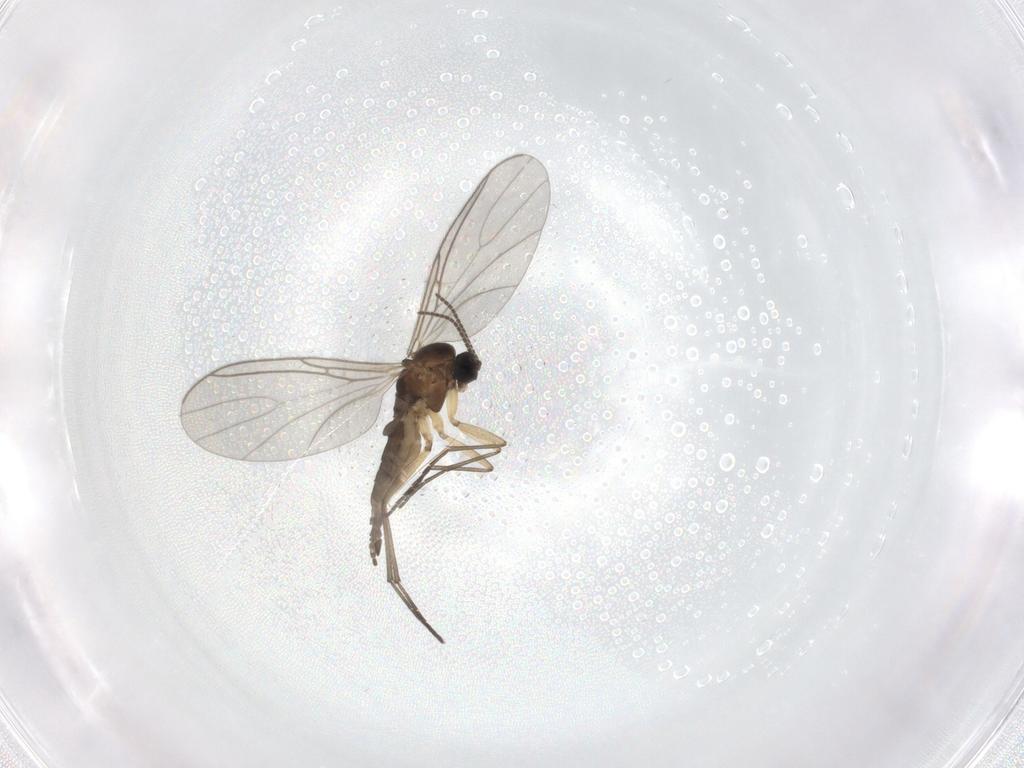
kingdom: Animalia
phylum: Arthropoda
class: Insecta
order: Diptera
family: Sciaridae
